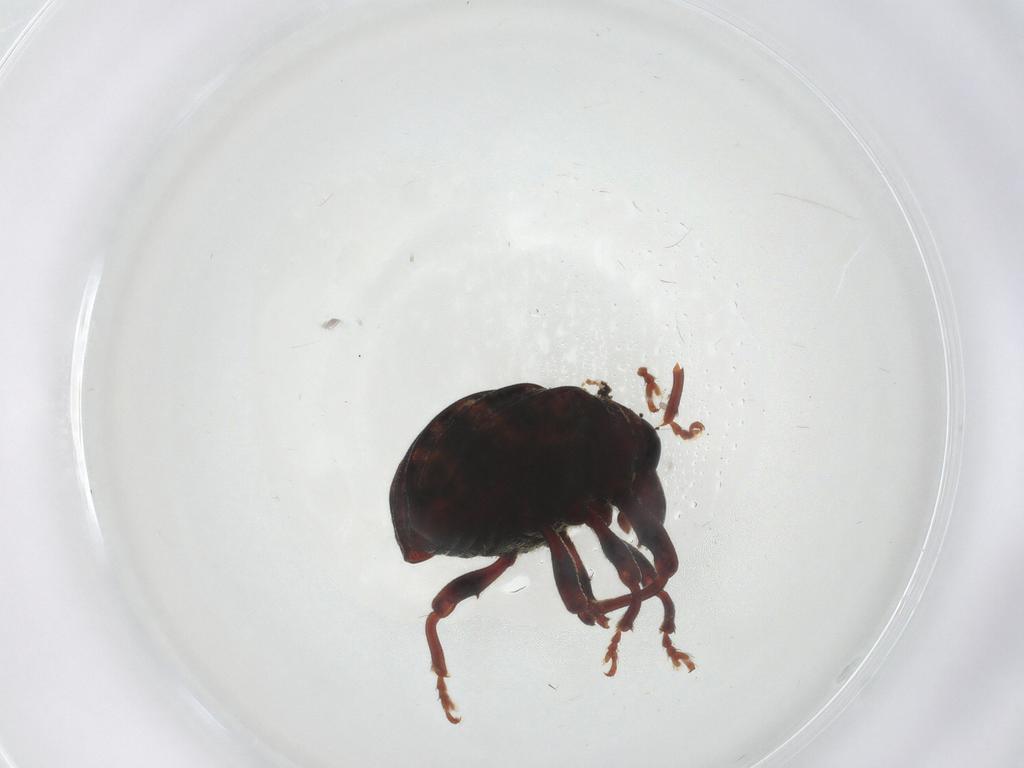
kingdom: Animalia
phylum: Arthropoda
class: Insecta
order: Coleoptera
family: Curculionidae
